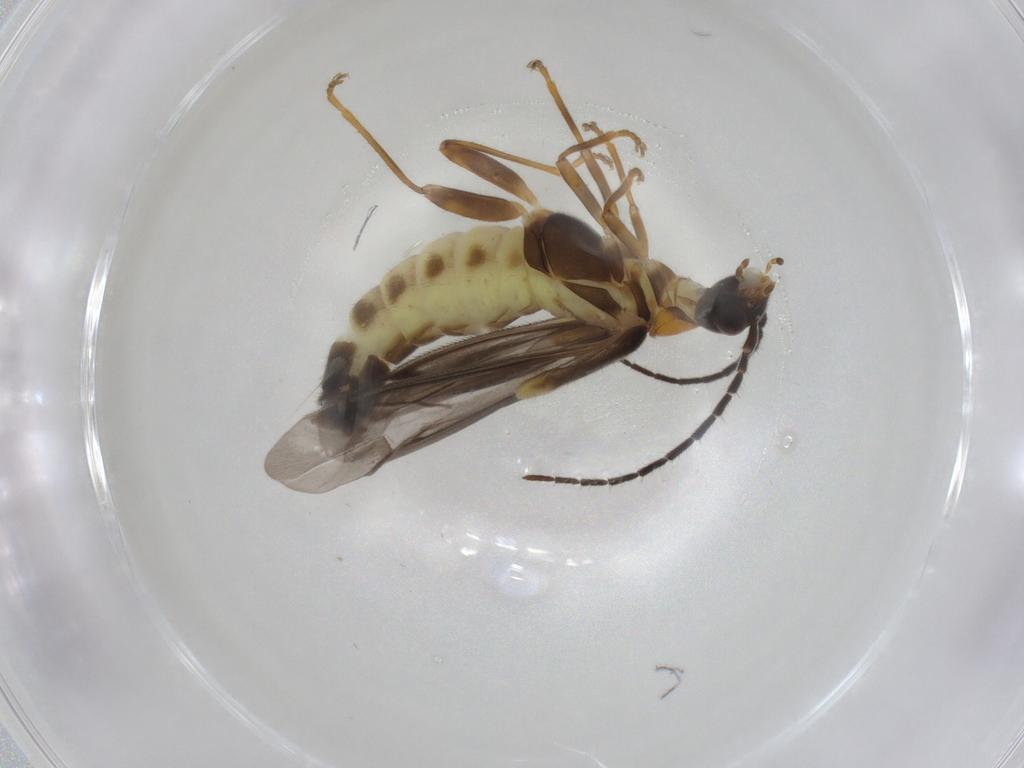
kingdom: Animalia
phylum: Arthropoda
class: Insecta
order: Coleoptera
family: Cantharidae
